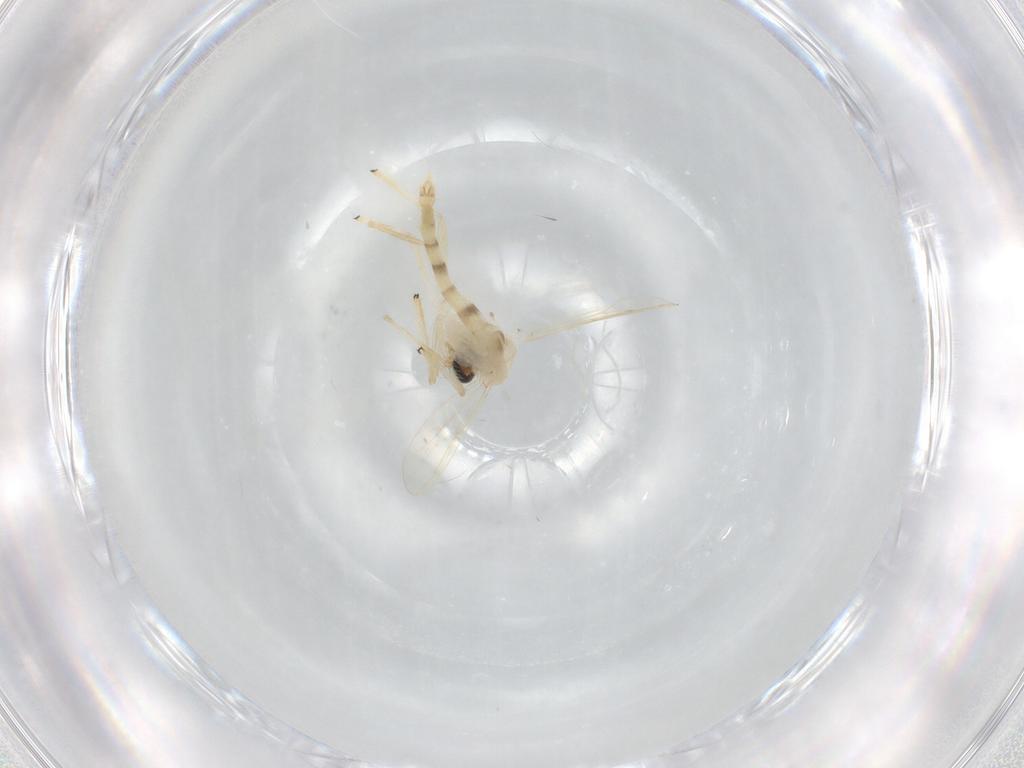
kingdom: Animalia
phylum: Arthropoda
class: Insecta
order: Diptera
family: Chironomidae
